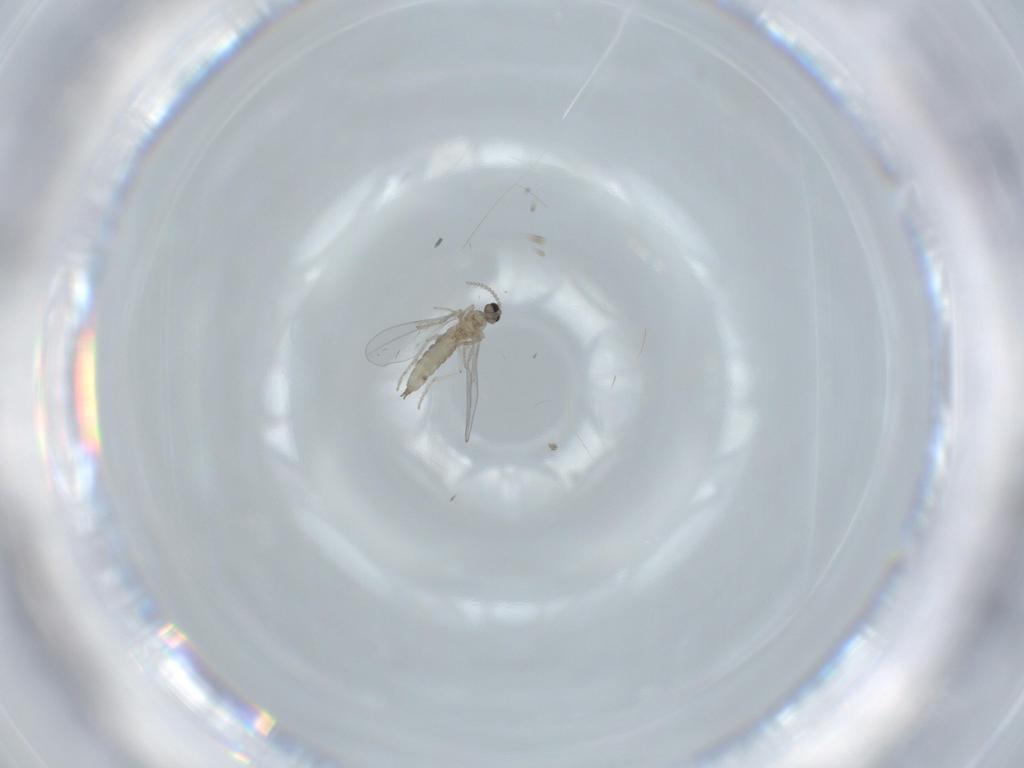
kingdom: Animalia
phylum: Arthropoda
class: Insecta
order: Diptera
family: Cecidomyiidae
